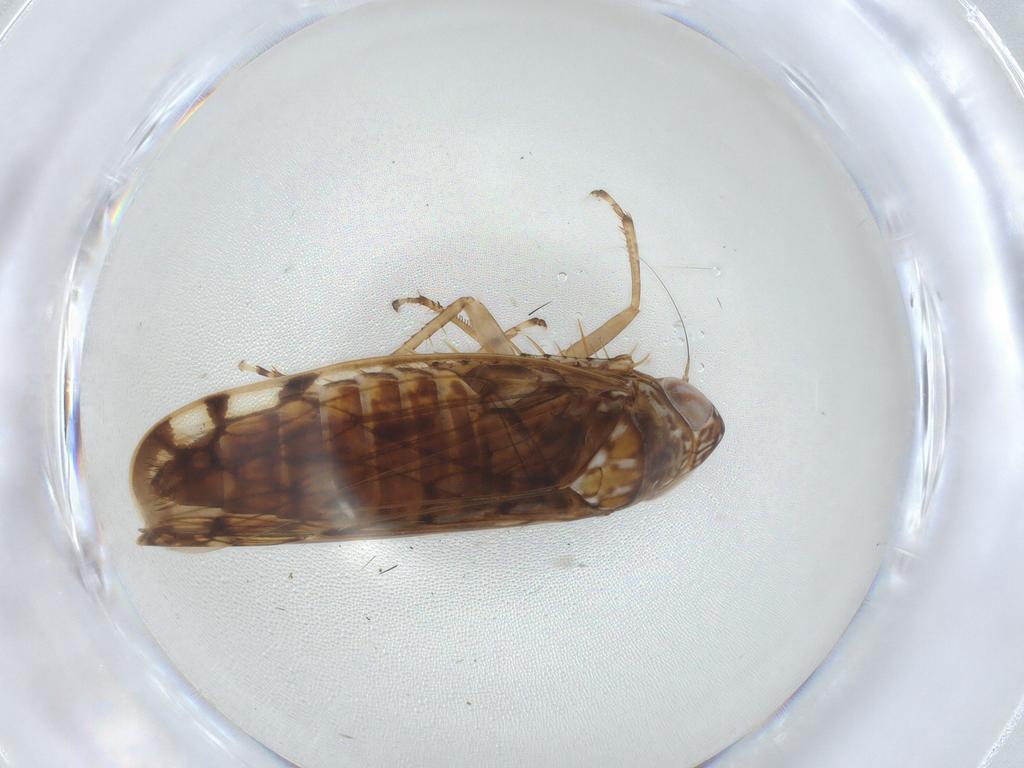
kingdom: Animalia
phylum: Arthropoda
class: Insecta
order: Hemiptera
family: Cicadellidae
